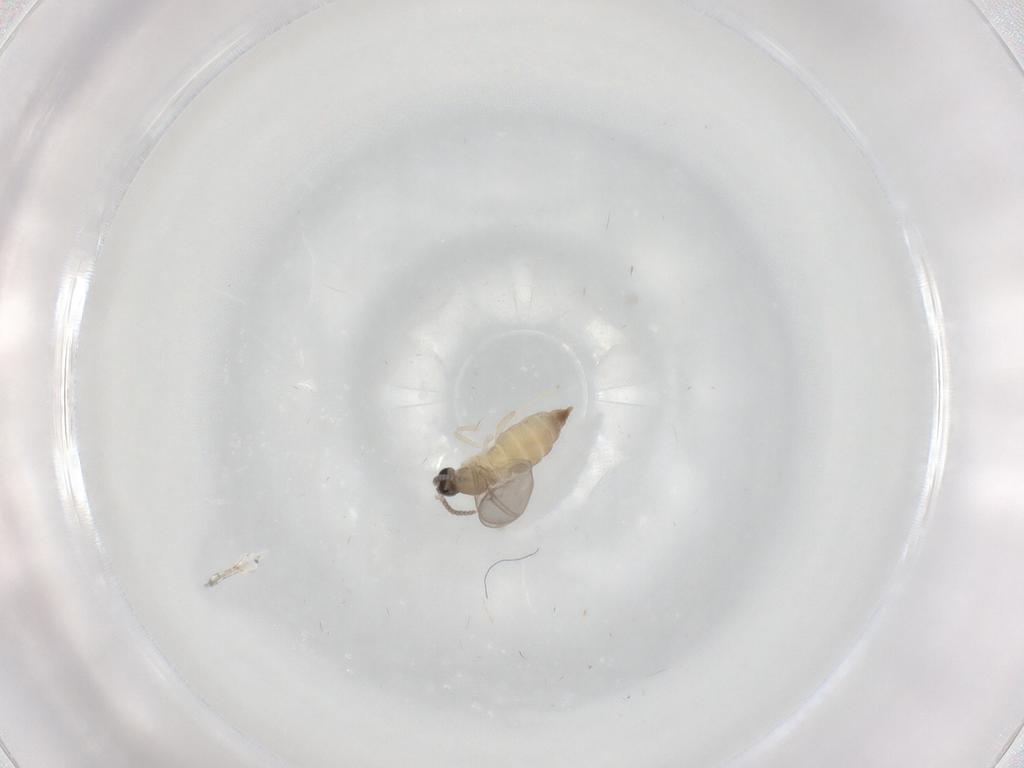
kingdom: Animalia
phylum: Arthropoda
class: Insecta
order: Diptera
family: Cecidomyiidae
